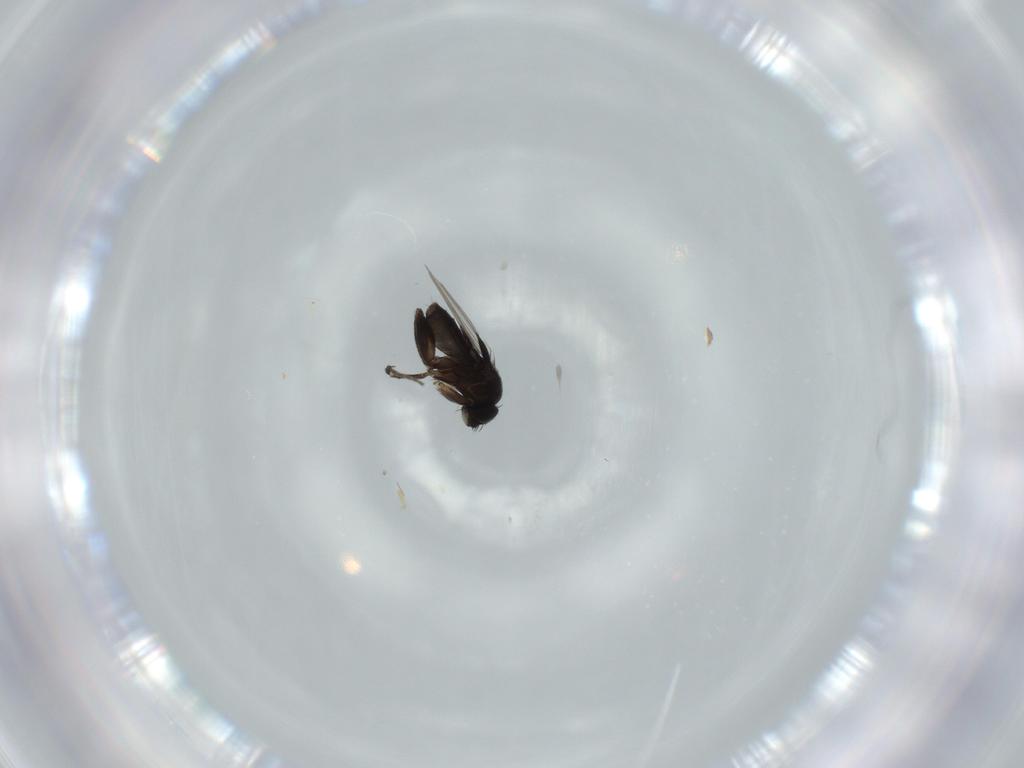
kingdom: Animalia
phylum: Arthropoda
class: Insecta
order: Diptera
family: Phoridae
